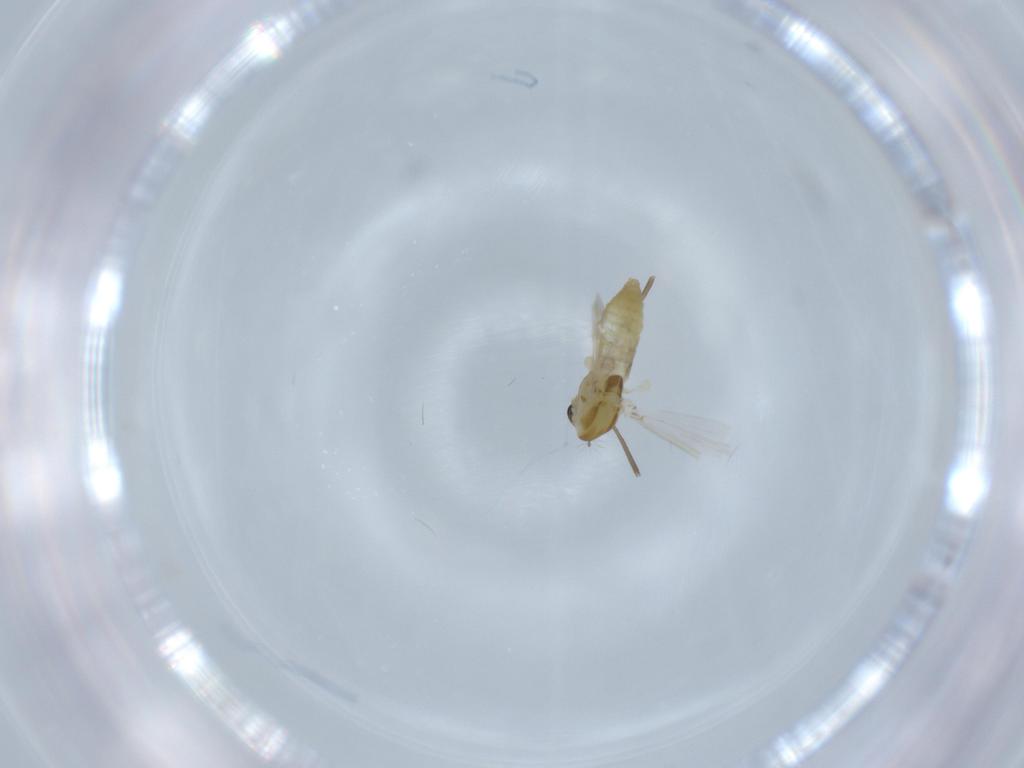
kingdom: Animalia
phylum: Arthropoda
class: Insecta
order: Diptera
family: Chironomidae
